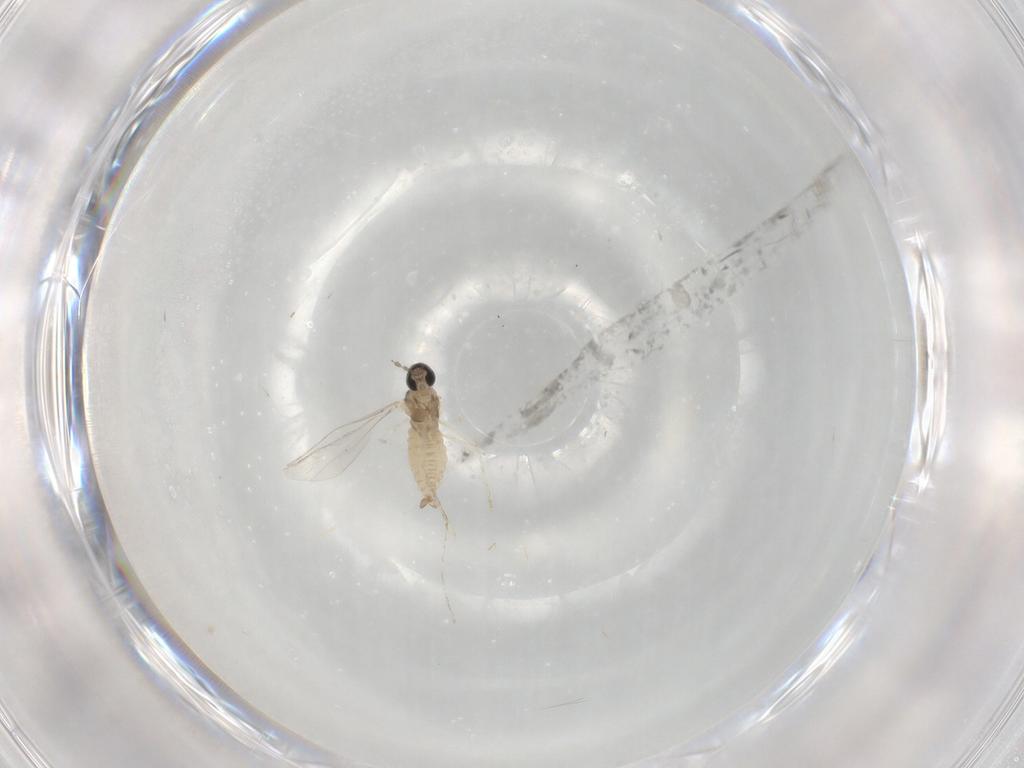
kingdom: Animalia
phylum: Arthropoda
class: Insecta
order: Diptera
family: Cecidomyiidae
